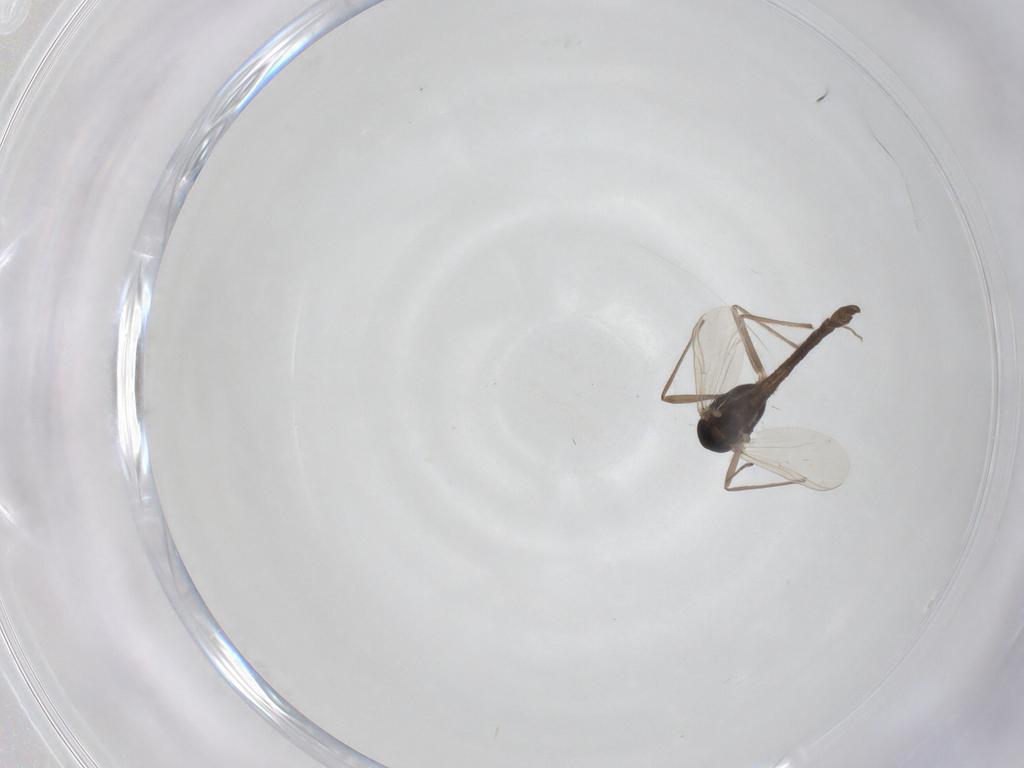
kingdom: Animalia
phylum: Arthropoda
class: Insecta
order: Diptera
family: Chironomidae
